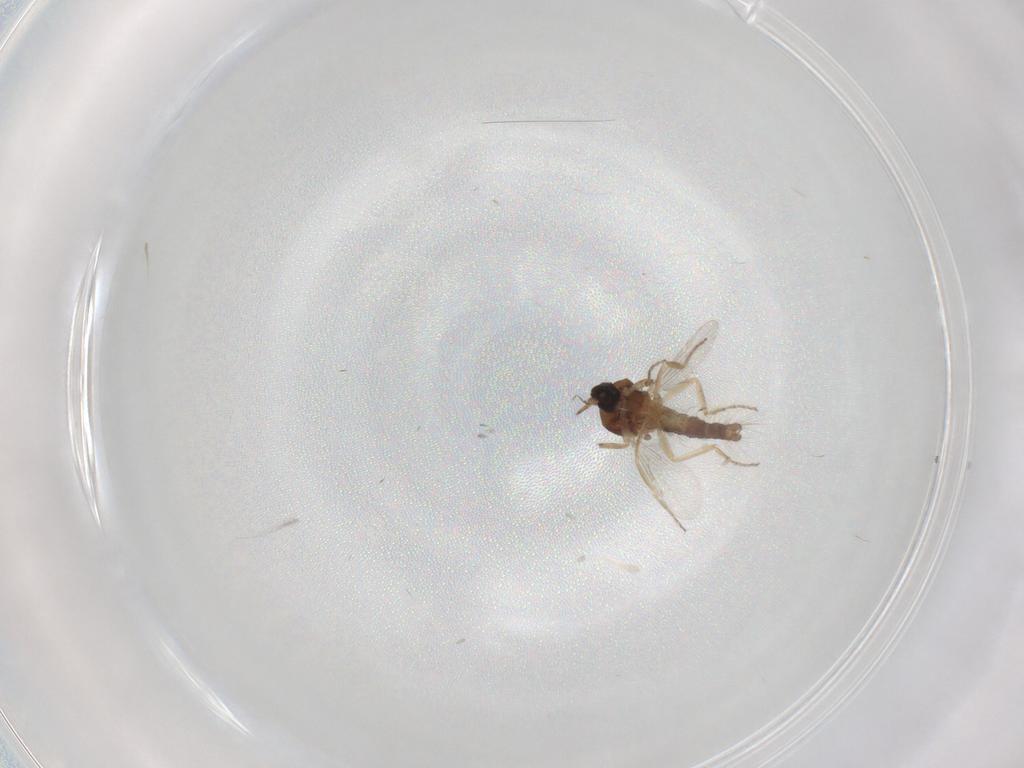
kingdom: Animalia
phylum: Arthropoda
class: Insecta
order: Diptera
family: Ceratopogonidae
